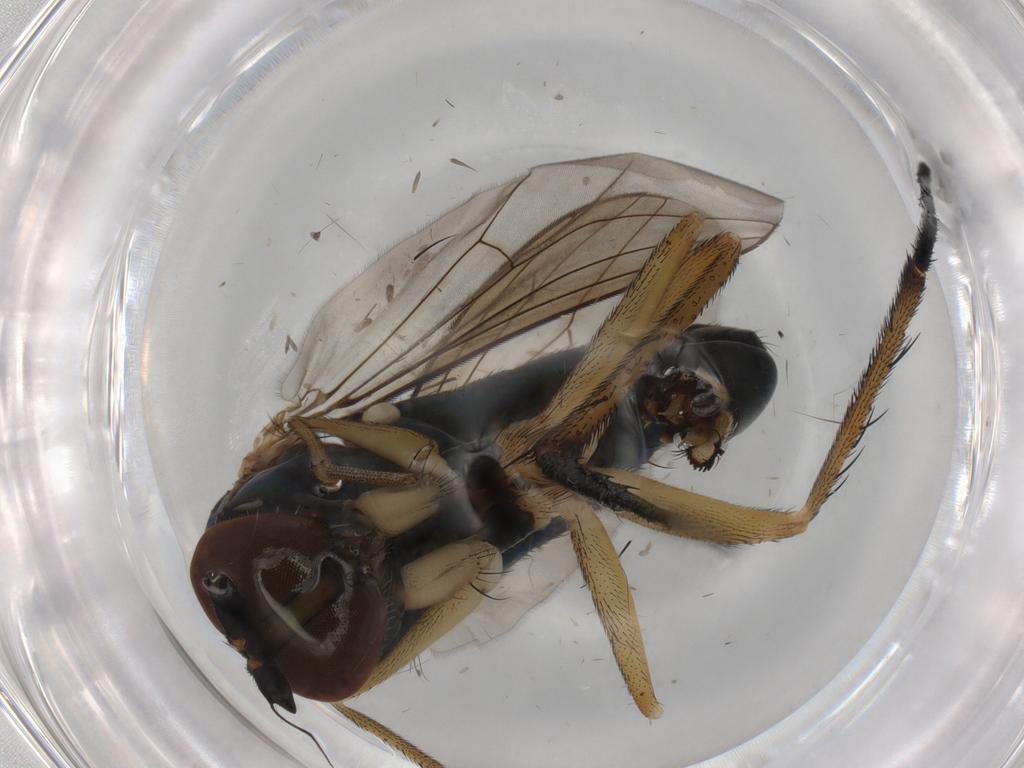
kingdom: Animalia
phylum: Arthropoda
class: Insecta
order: Diptera
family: Dolichopodidae
